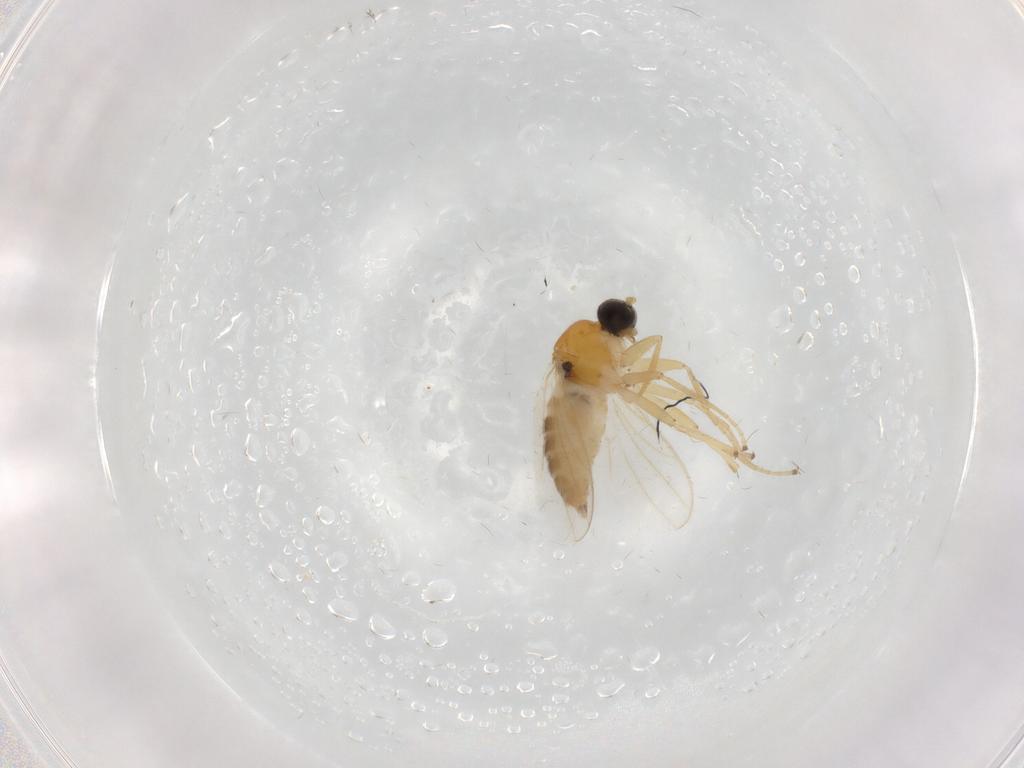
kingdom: Animalia
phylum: Arthropoda
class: Insecta
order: Diptera
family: Hybotidae
